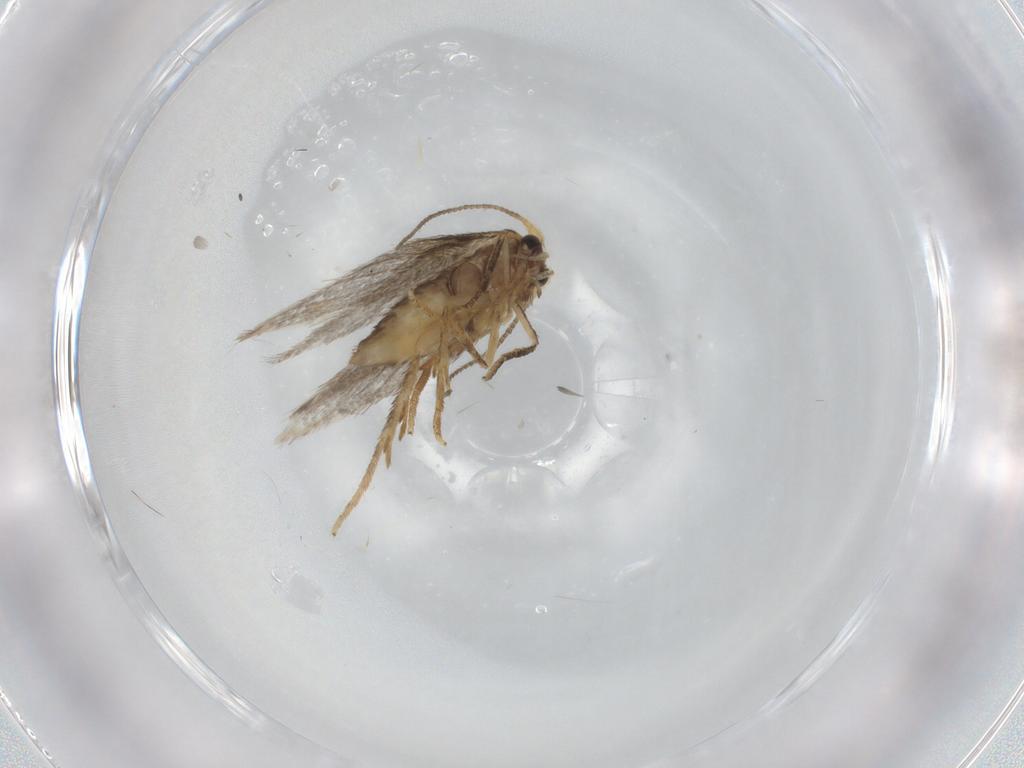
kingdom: Animalia
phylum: Arthropoda
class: Insecta
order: Lepidoptera
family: Nepticulidae
